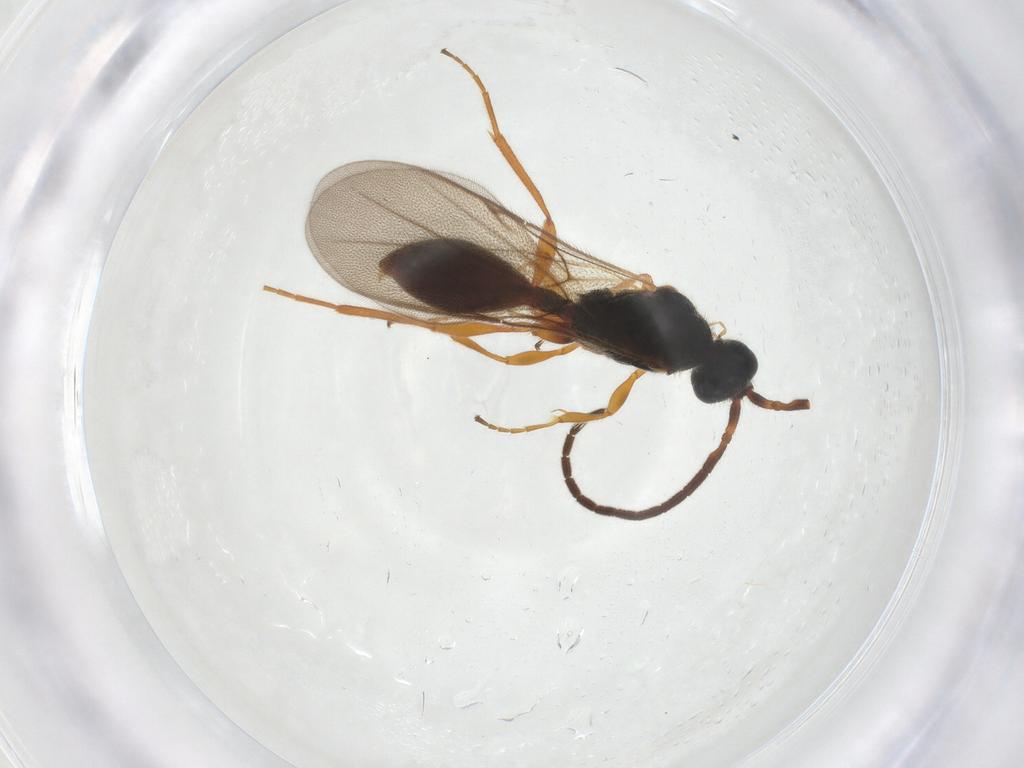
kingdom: Animalia
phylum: Arthropoda
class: Insecta
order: Hymenoptera
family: Diapriidae
